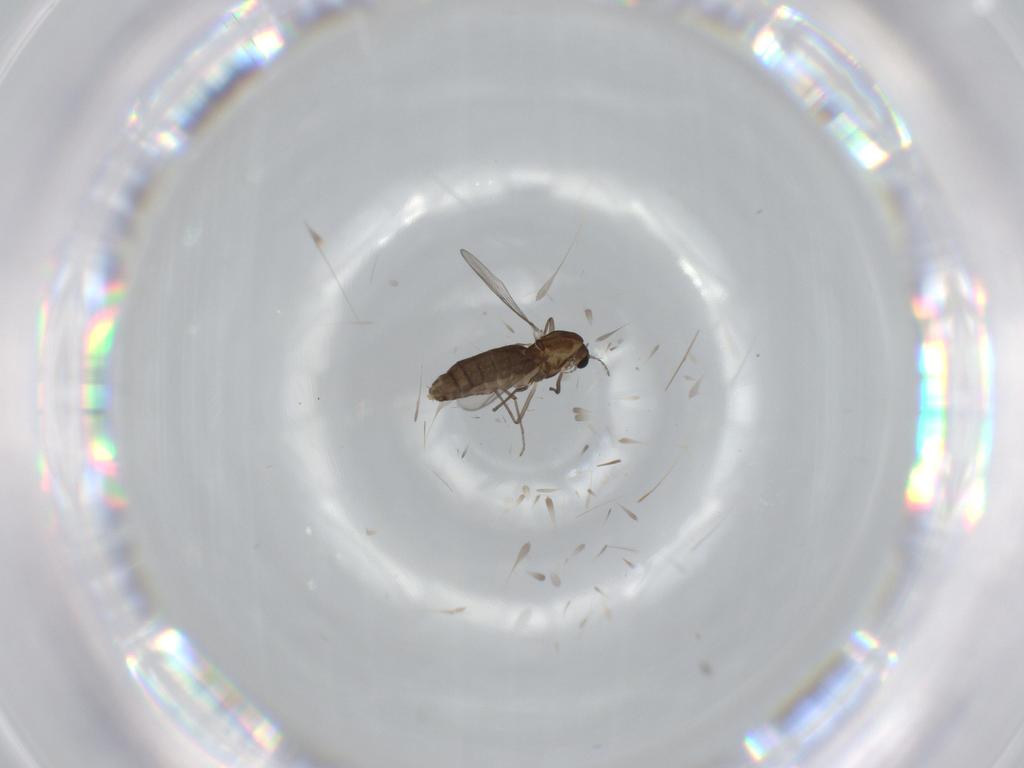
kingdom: Animalia
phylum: Arthropoda
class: Insecta
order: Diptera
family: Chironomidae
